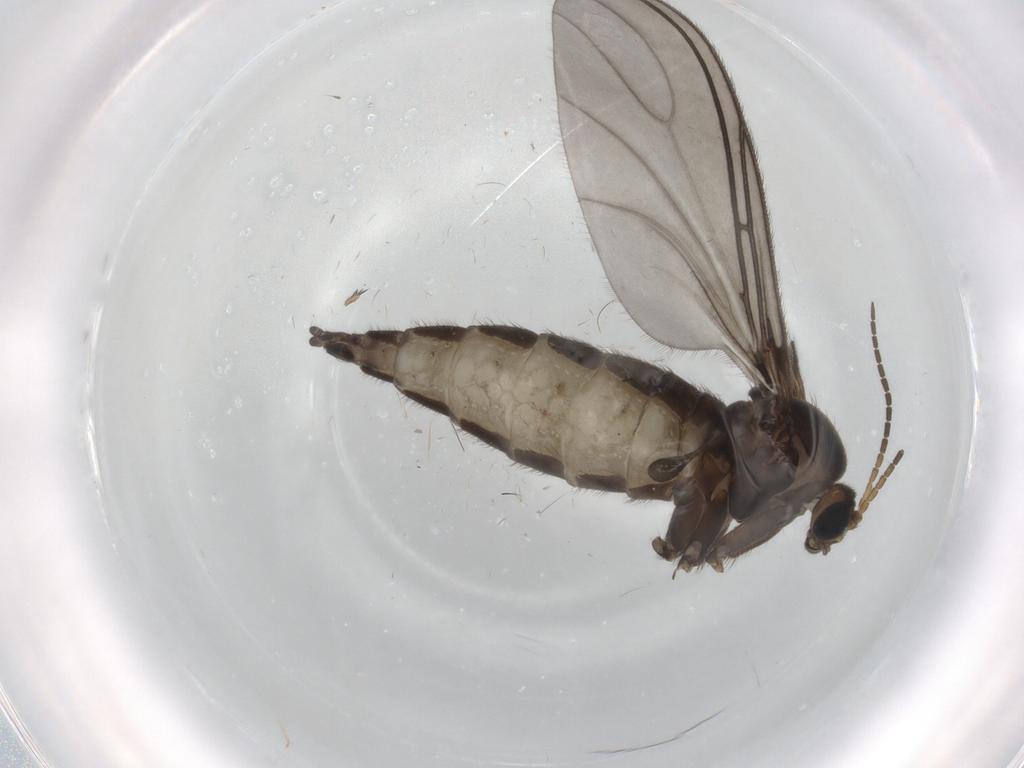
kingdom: Animalia
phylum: Arthropoda
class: Insecta
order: Diptera
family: Sciaridae
